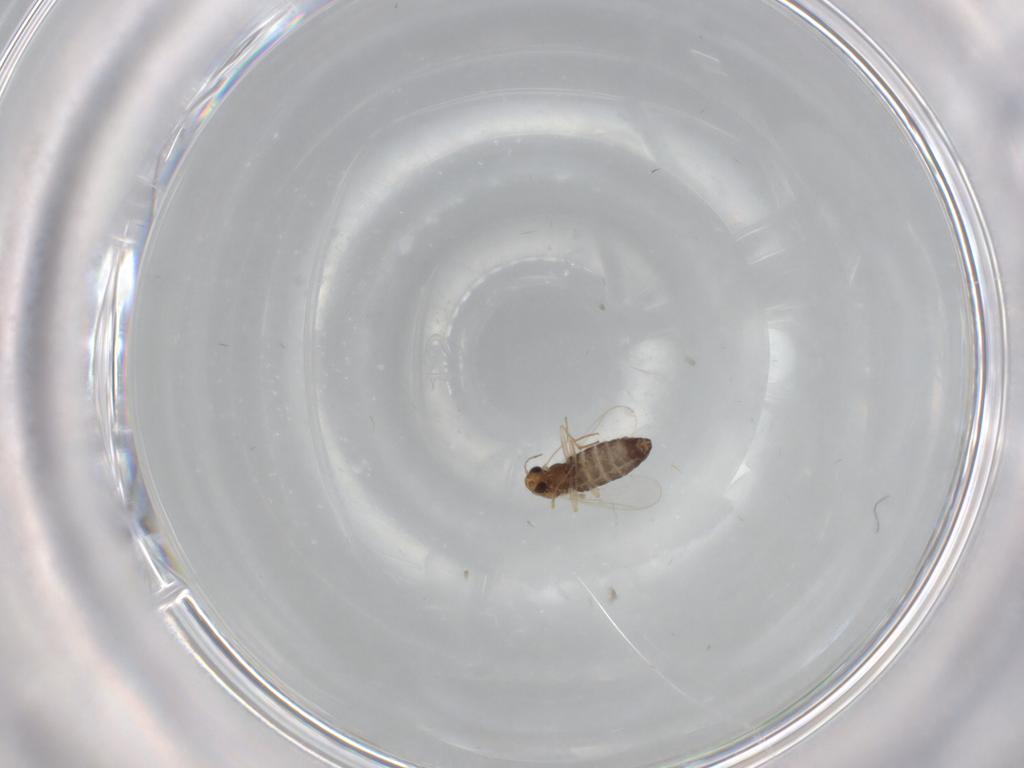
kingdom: Animalia
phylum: Arthropoda
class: Insecta
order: Diptera
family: Chironomidae
